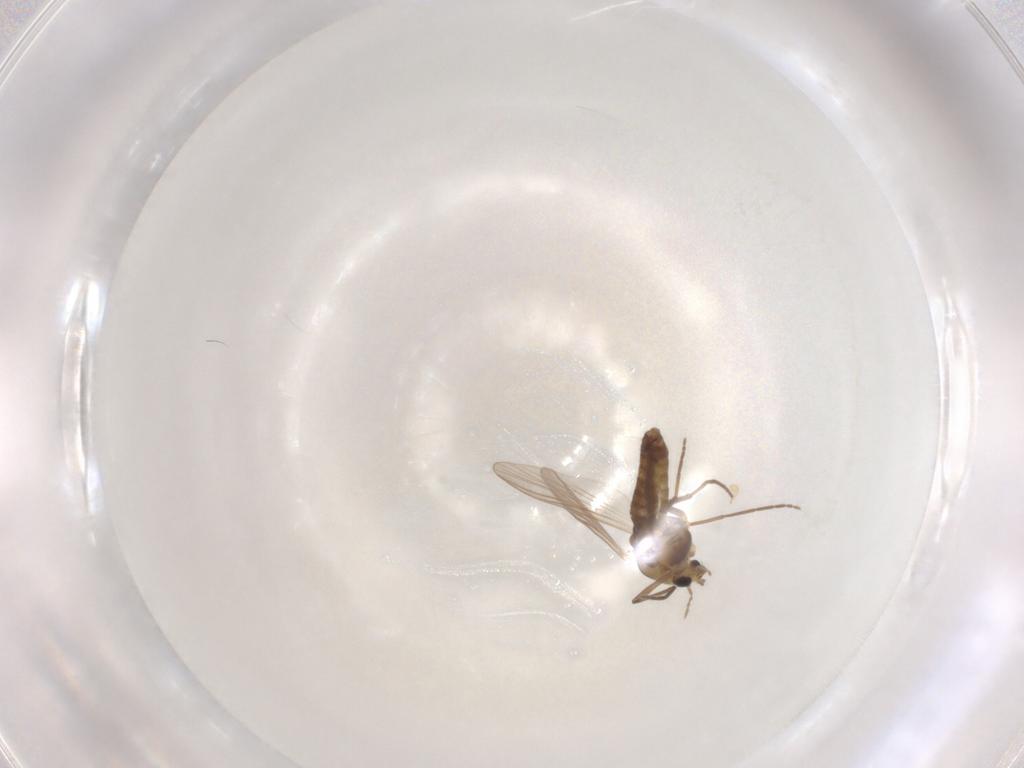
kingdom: Animalia
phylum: Arthropoda
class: Insecta
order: Diptera
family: Chironomidae
